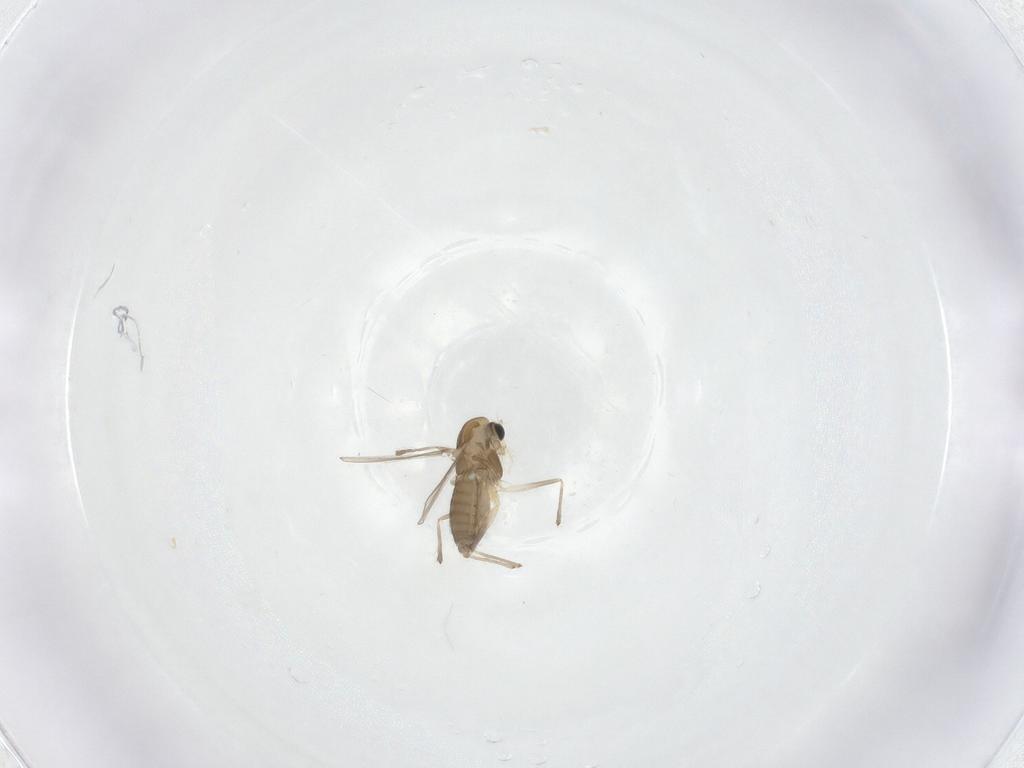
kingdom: Animalia
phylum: Arthropoda
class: Insecta
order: Diptera
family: Chironomidae
